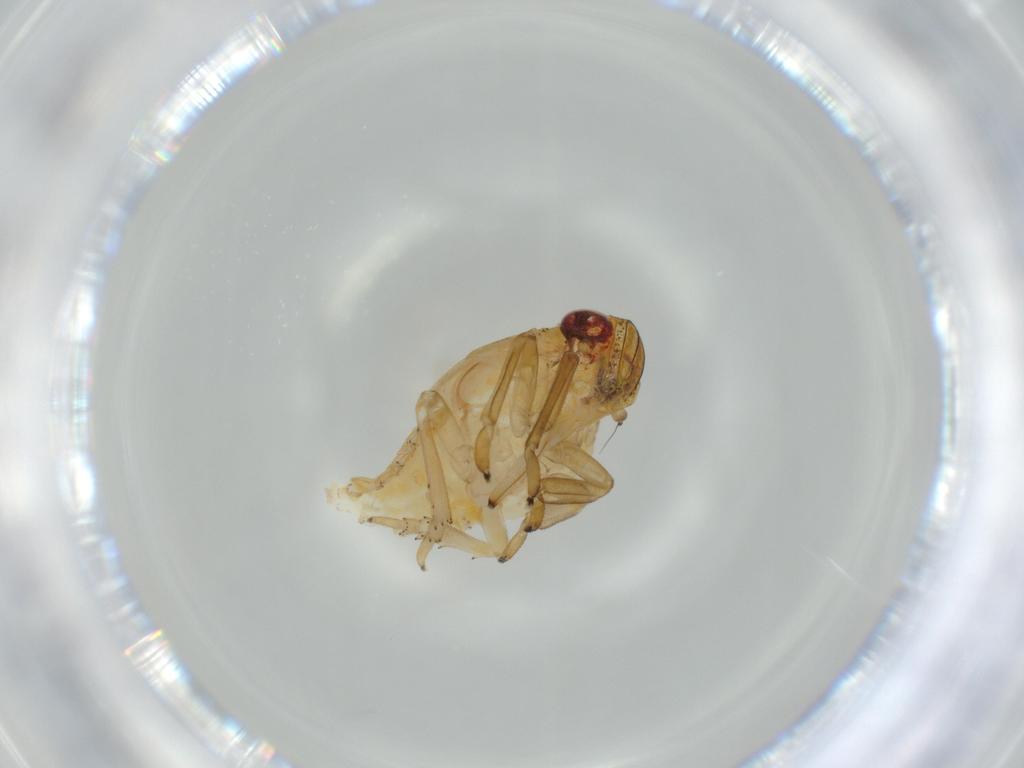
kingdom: Animalia
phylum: Arthropoda
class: Insecta
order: Hemiptera
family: Issidae
